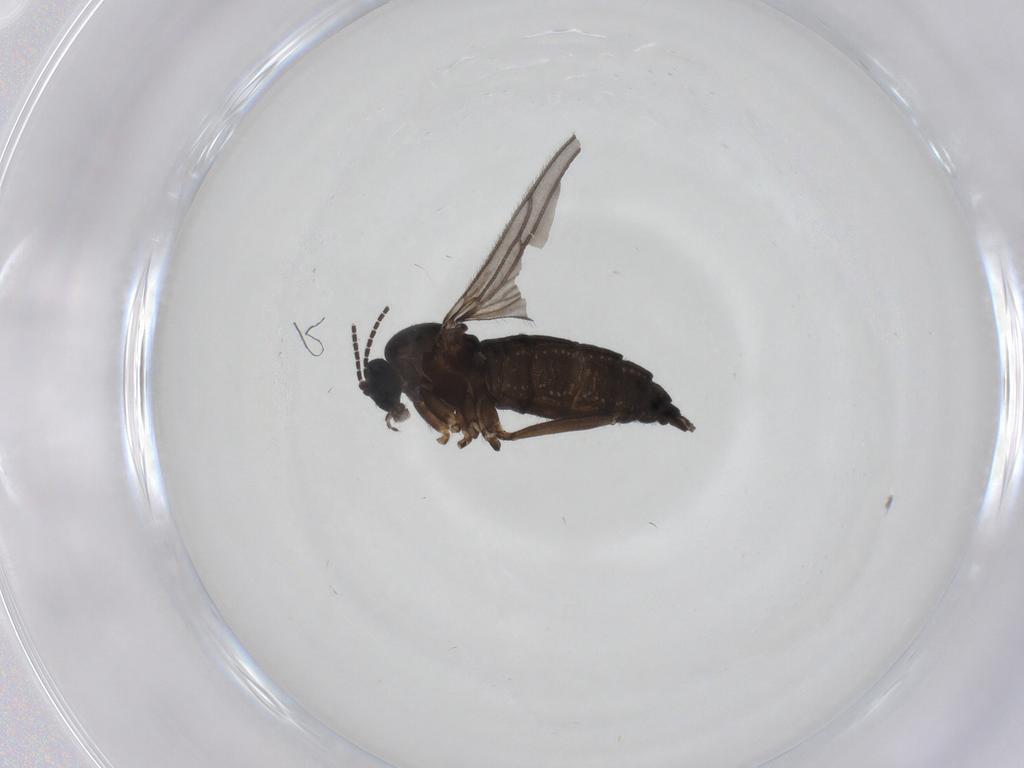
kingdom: Animalia
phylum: Arthropoda
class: Insecta
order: Diptera
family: Sciaridae
